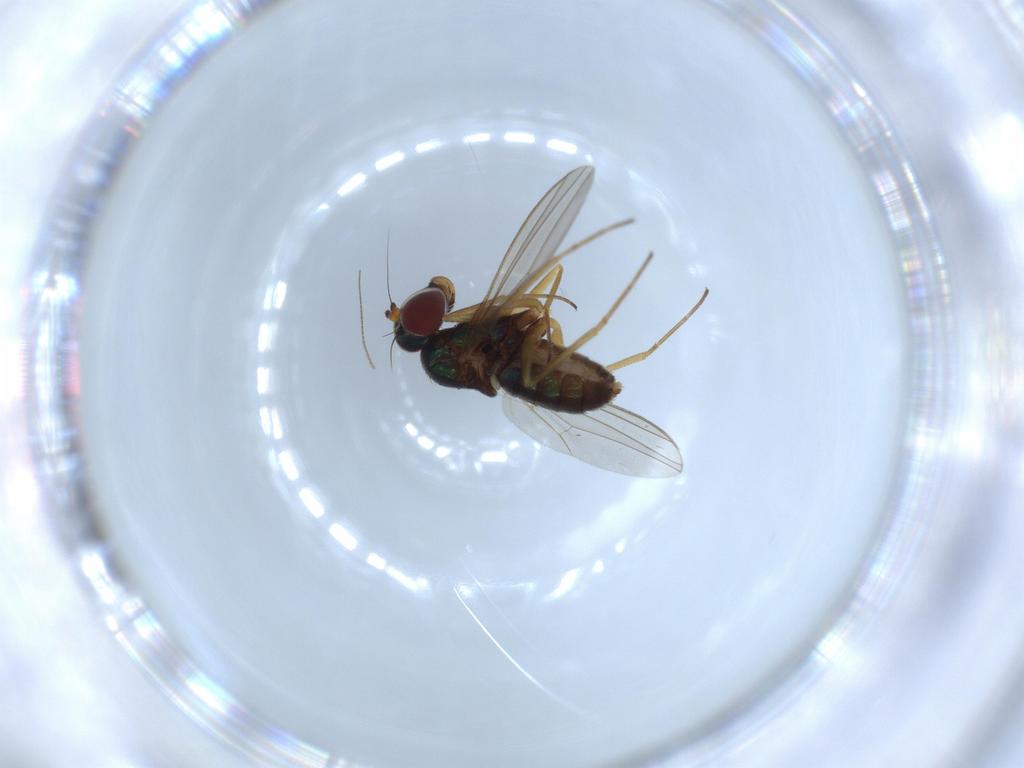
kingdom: Animalia
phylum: Arthropoda
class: Insecta
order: Diptera
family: Dolichopodidae
